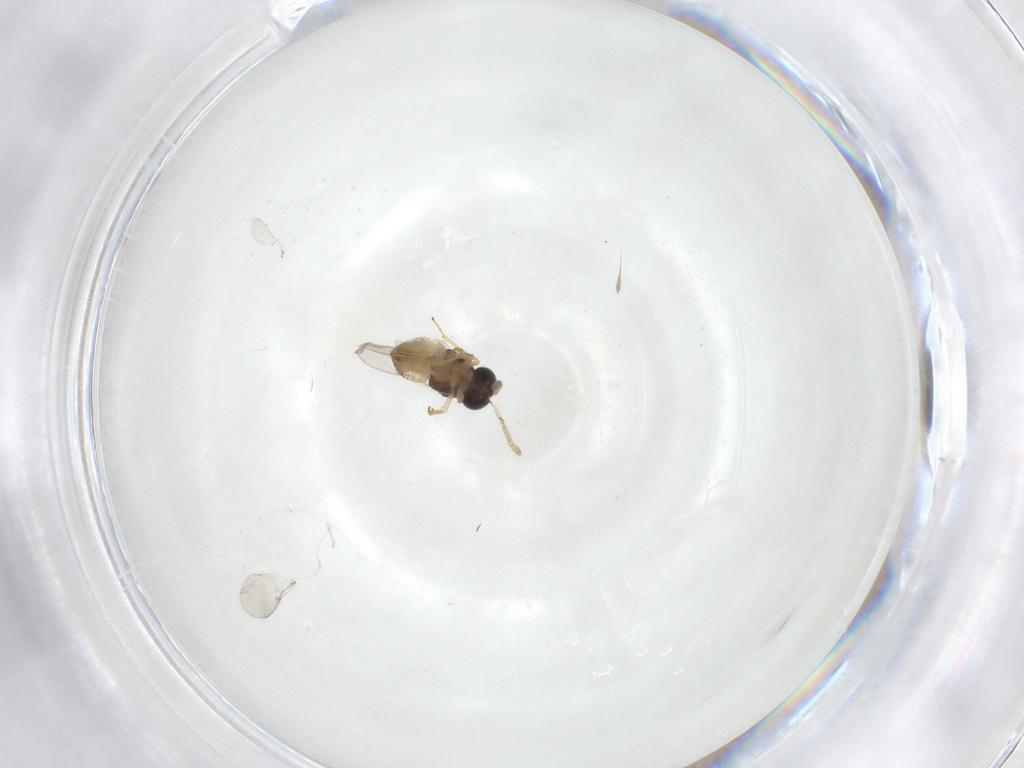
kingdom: Animalia
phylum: Arthropoda
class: Insecta
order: Hymenoptera
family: Encyrtidae
